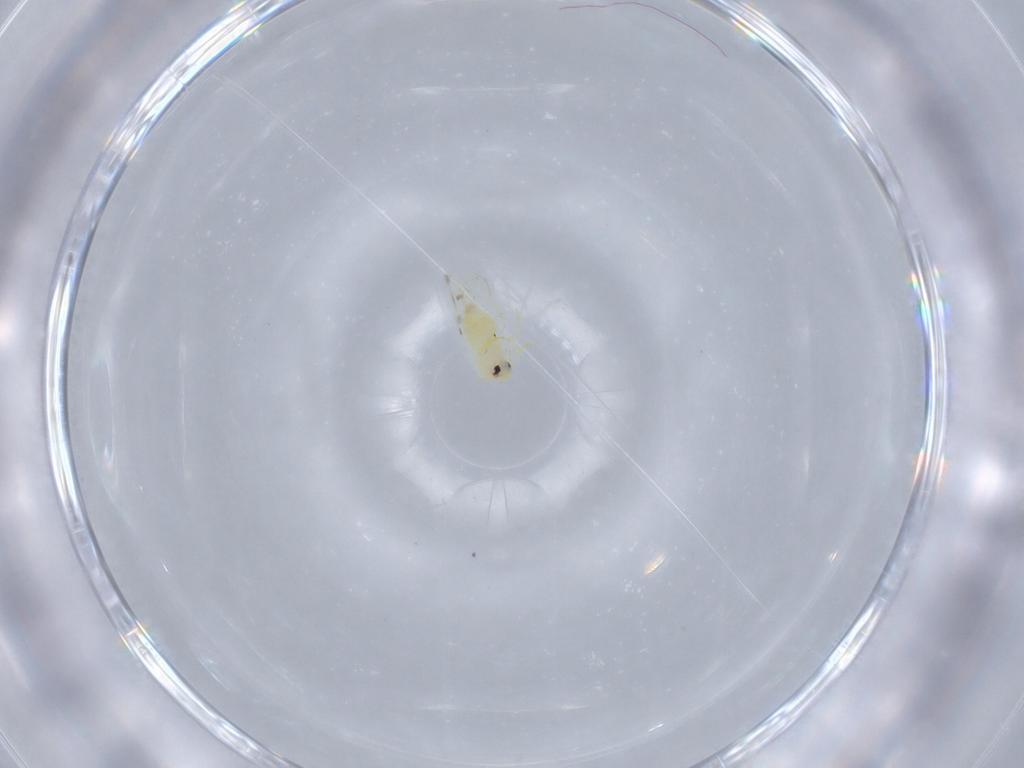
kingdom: Animalia
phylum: Arthropoda
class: Insecta
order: Hemiptera
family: Aleyrodidae
